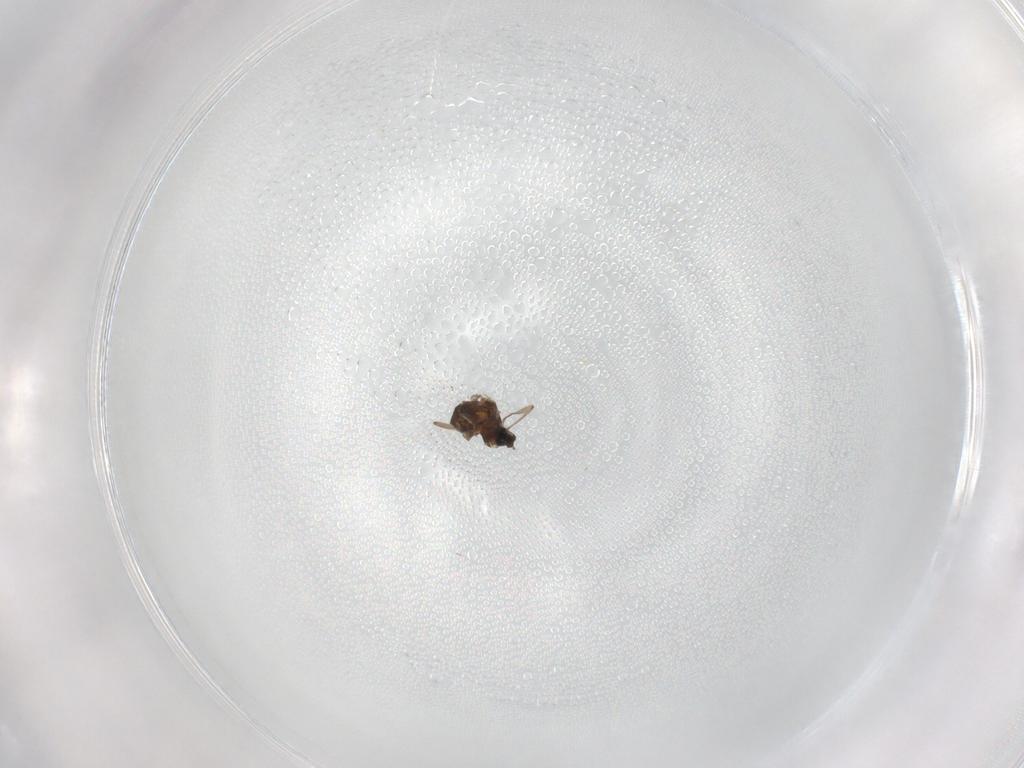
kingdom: Animalia
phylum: Arthropoda
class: Insecta
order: Diptera
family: Cecidomyiidae
